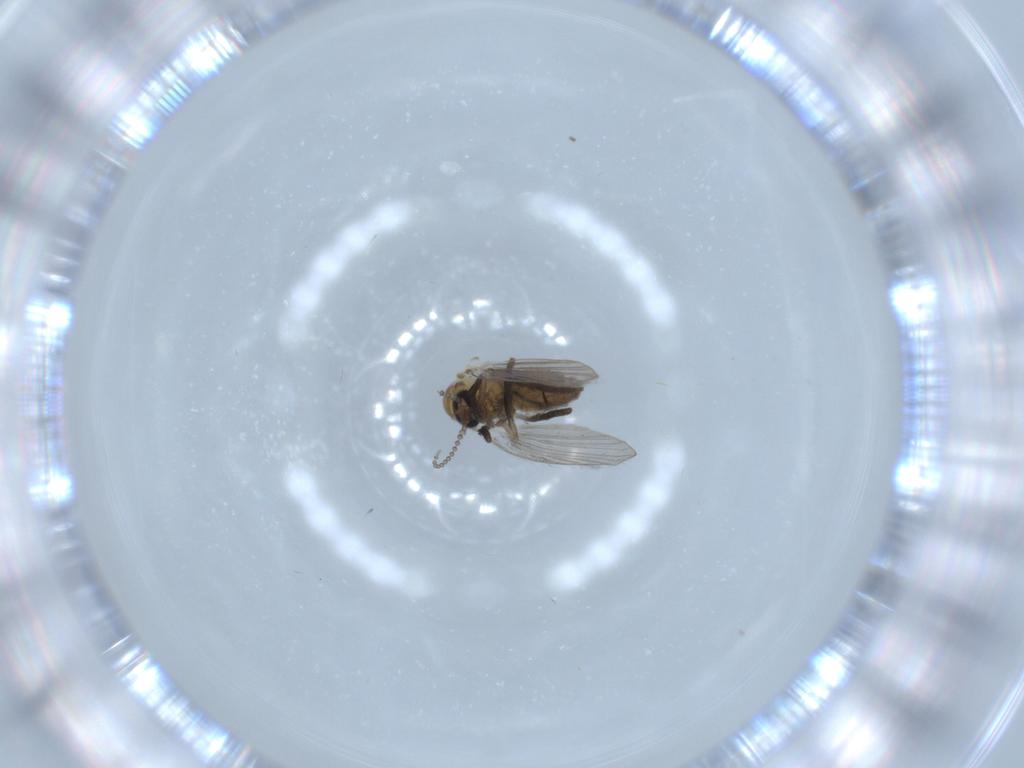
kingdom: Animalia
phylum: Arthropoda
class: Insecta
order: Diptera
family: Psychodidae
